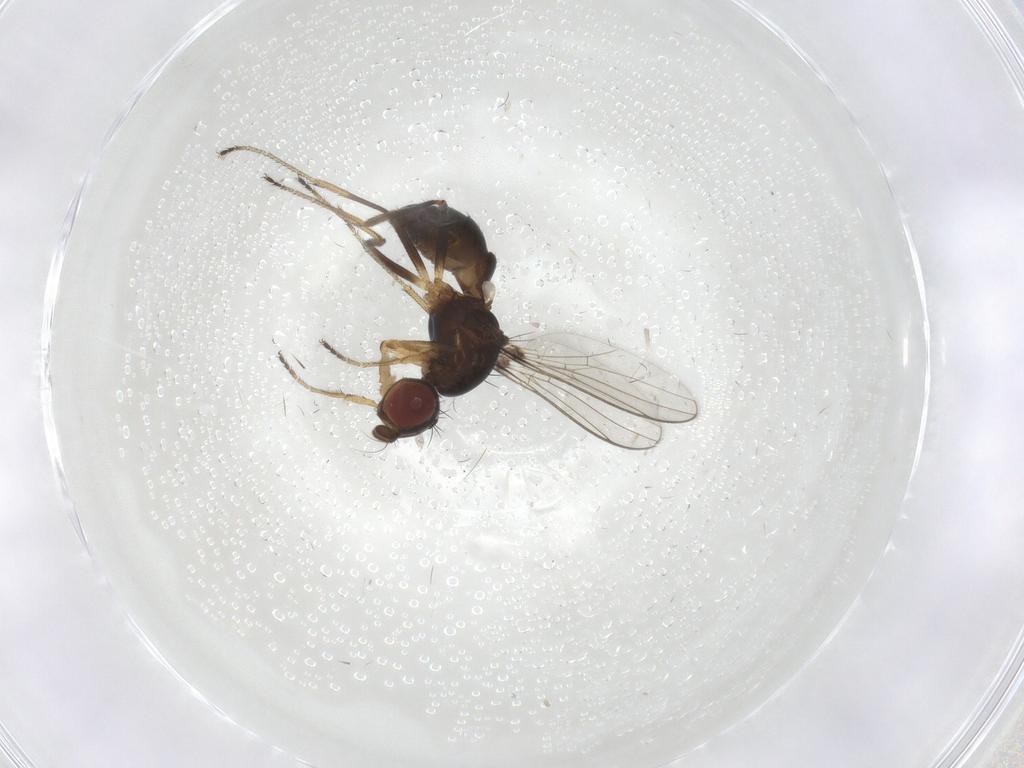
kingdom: Animalia
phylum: Arthropoda
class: Insecta
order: Diptera
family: Sepsidae
